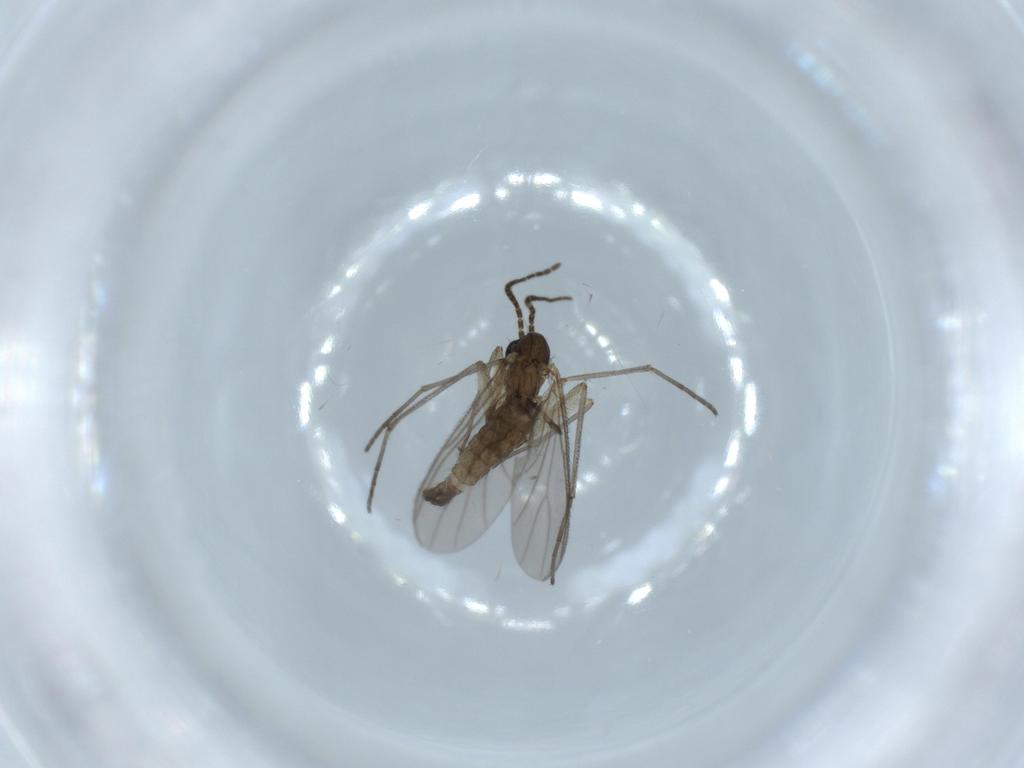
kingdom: Animalia
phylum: Arthropoda
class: Insecta
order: Diptera
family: Sciaridae
